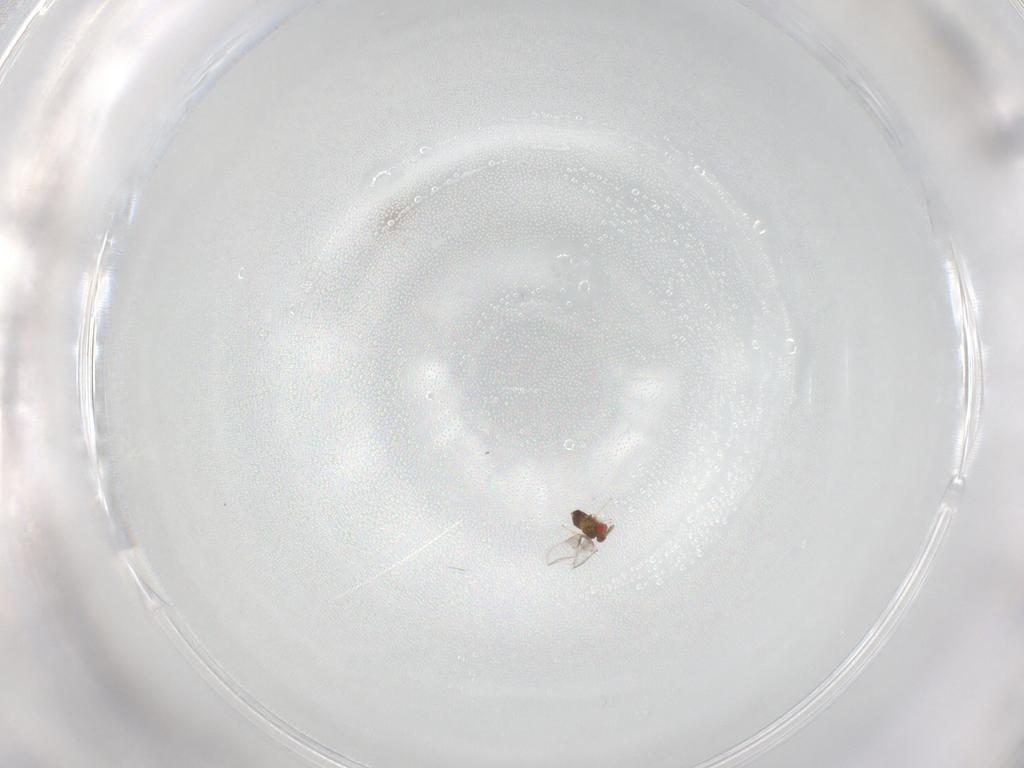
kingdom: Animalia
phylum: Arthropoda
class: Insecta
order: Hymenoptera
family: Trichogrammatidae
